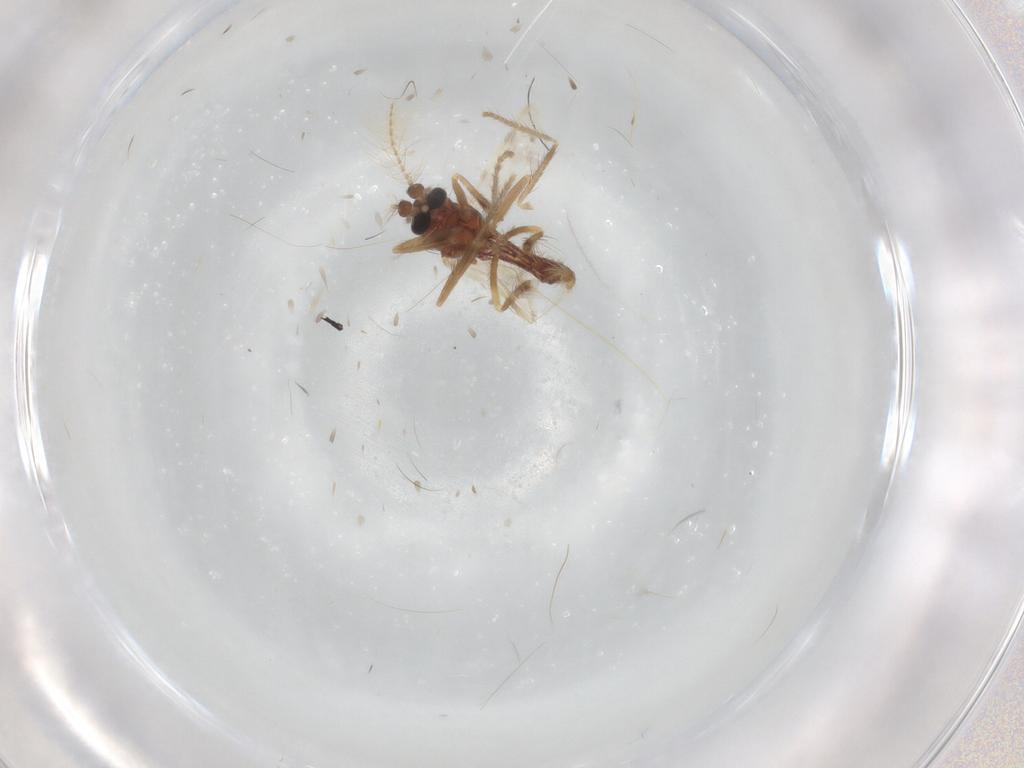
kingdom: Animalia
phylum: Arthropoda
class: Insecta
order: Diptera
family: Corethrellidae
